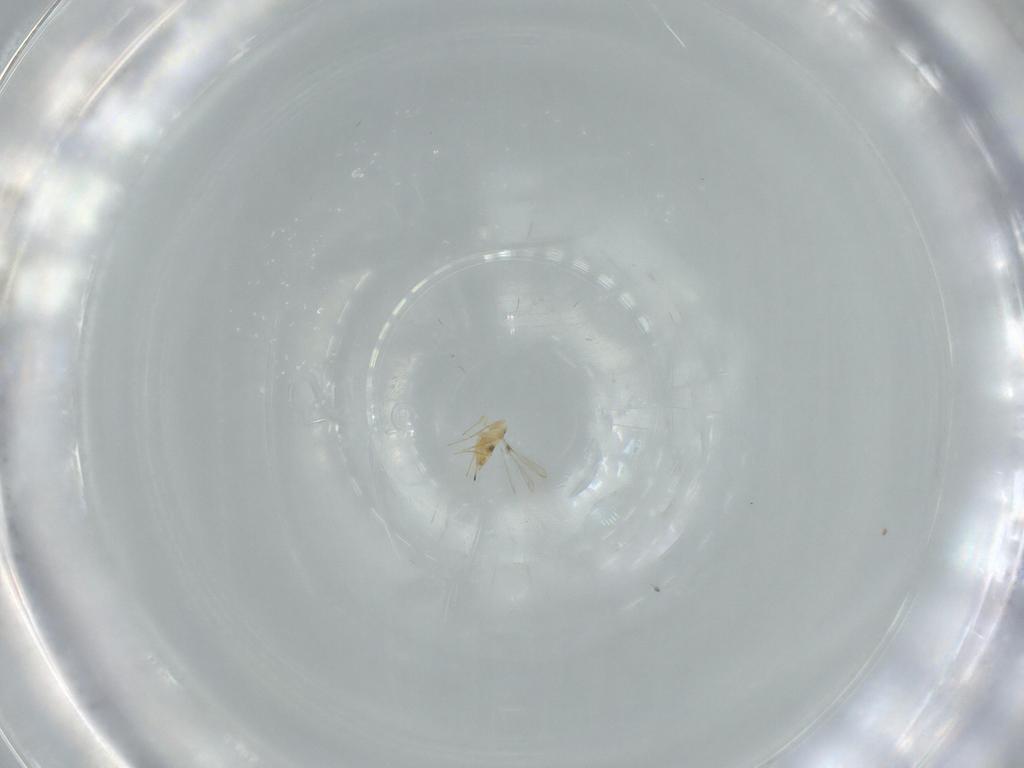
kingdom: Animalia
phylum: Arthropoda
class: Insecta
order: Hymenoptera
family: Mymaridae
